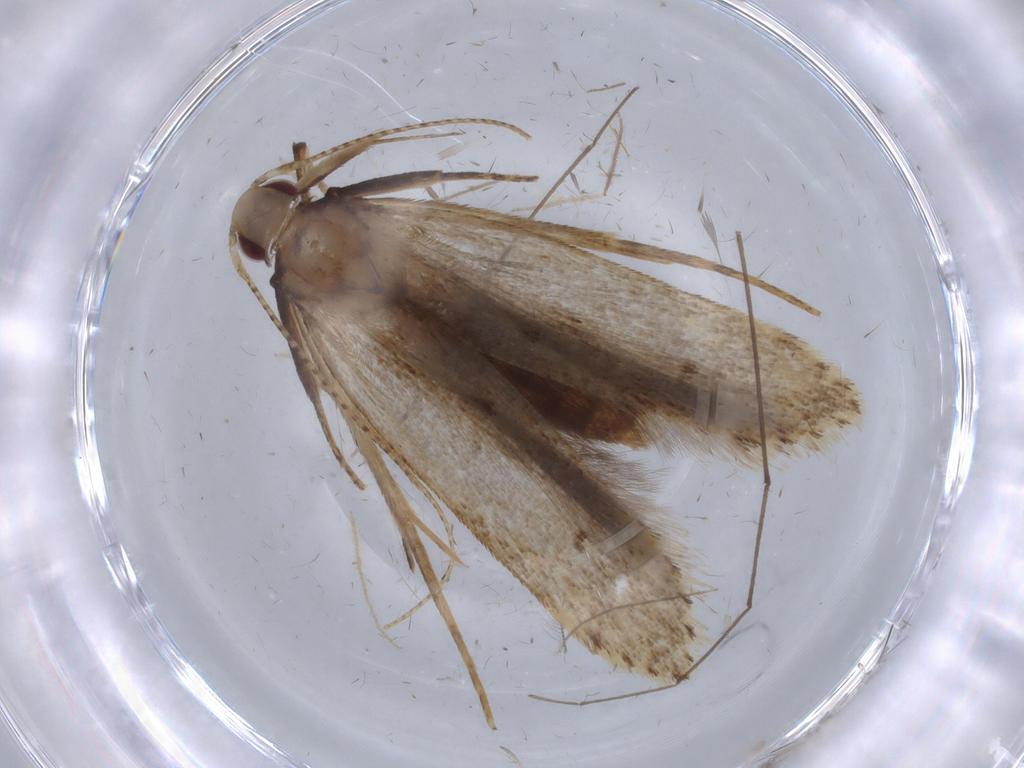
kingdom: Animalia
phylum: Arthropoda
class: Insecta
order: Lepidoptera
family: Gelechiidae
